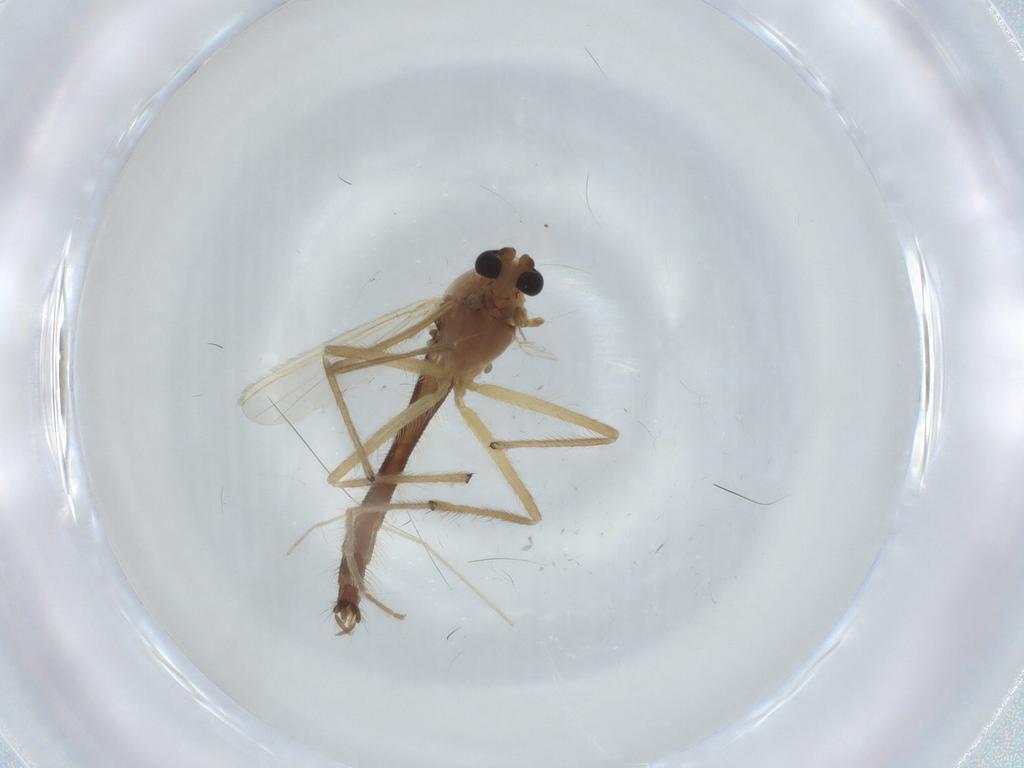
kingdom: Animalia
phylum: Arthropoda
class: Insecta
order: Diptera
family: Chironomidae
